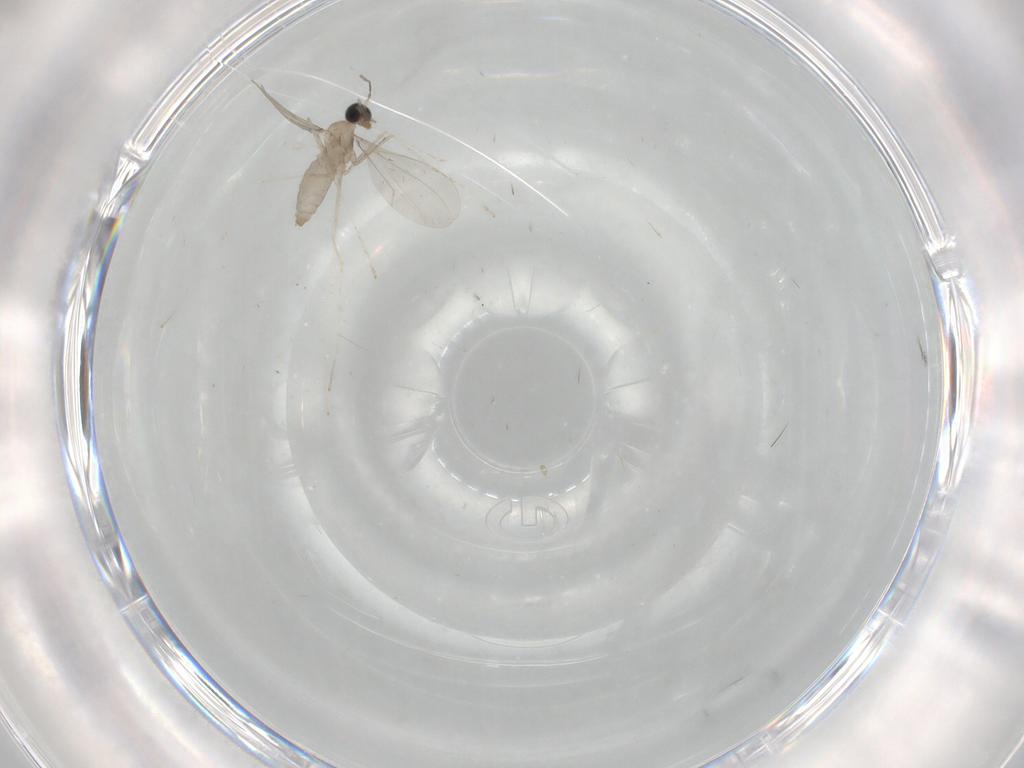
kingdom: Animalia
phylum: Arthropoda
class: Insecta
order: Diptera
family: Cecidomyiidae
